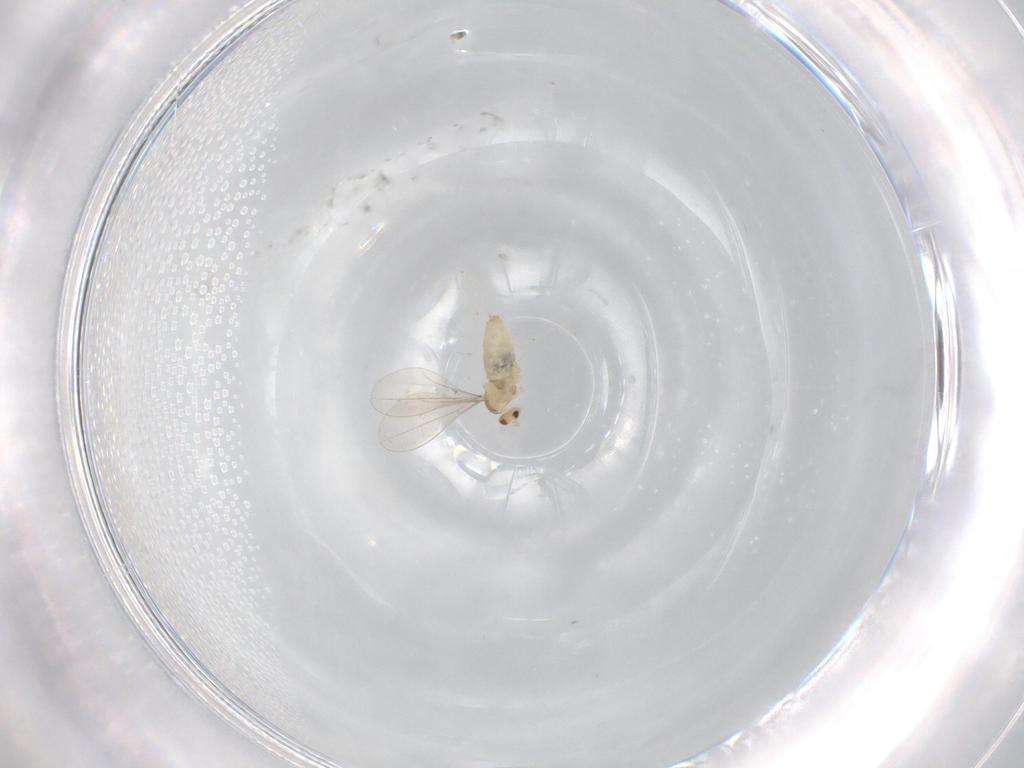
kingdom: Animalia
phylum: Arthropoda
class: Insecta
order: Diptera
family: Cecidomyiidae
